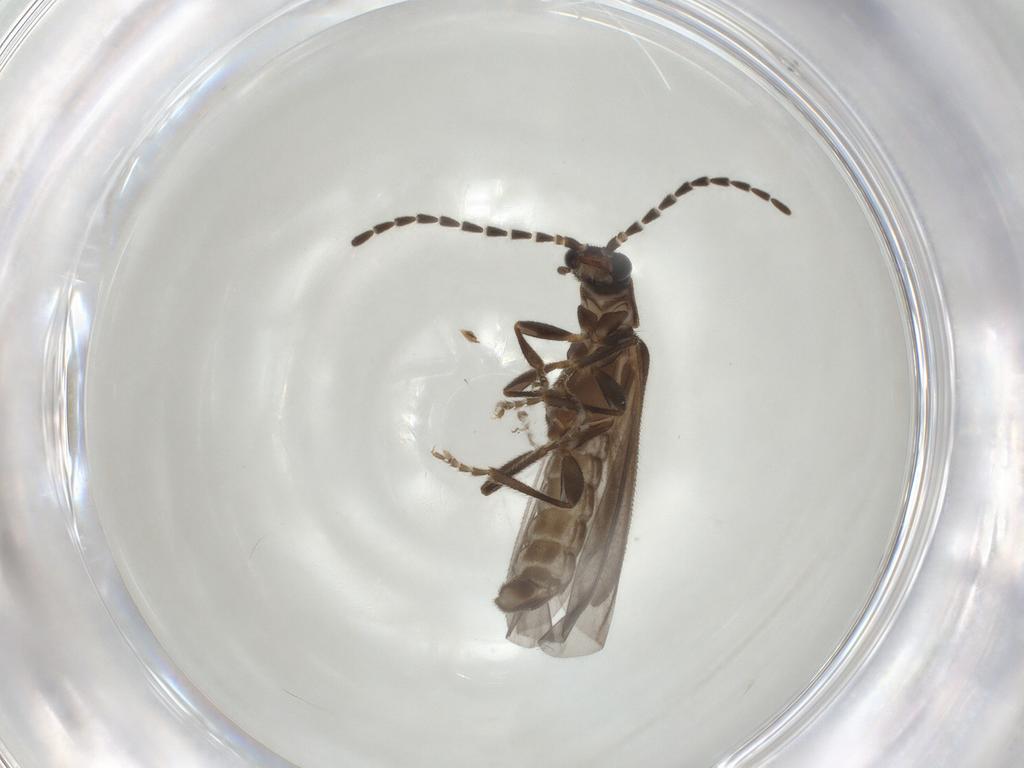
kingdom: Animalia
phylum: Arthropoda
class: Insecta
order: Coleoptera
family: Cantharidae
